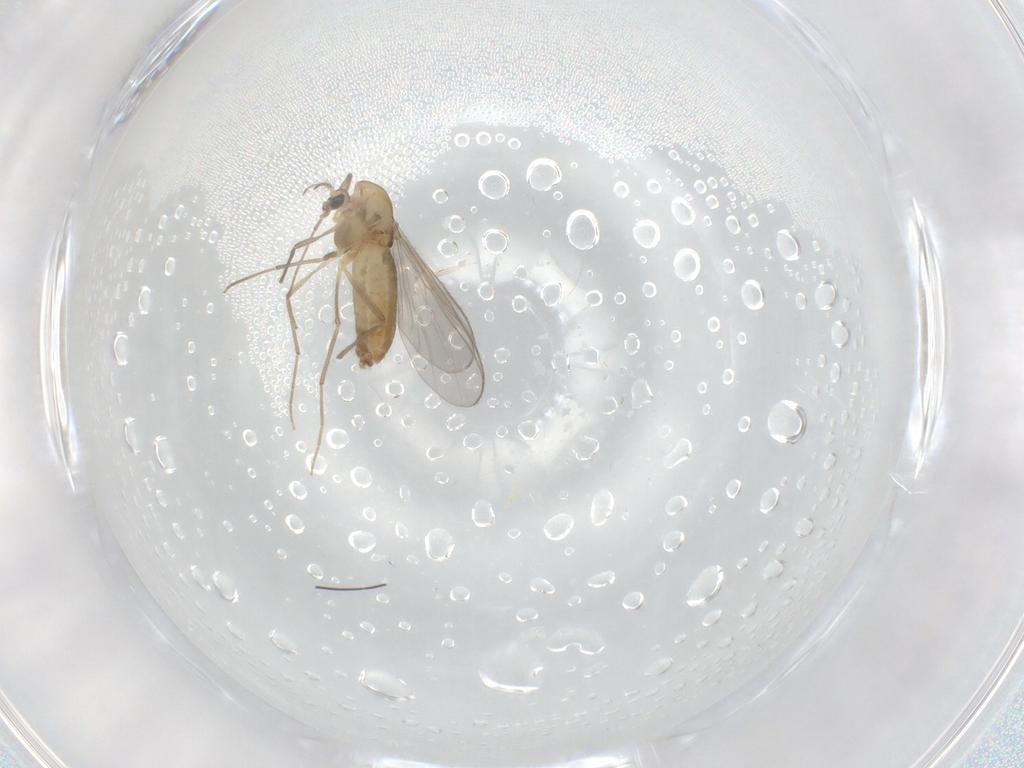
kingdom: Animalia
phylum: Arthropoda
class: Insecta
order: Diptera
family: Chironomidae
